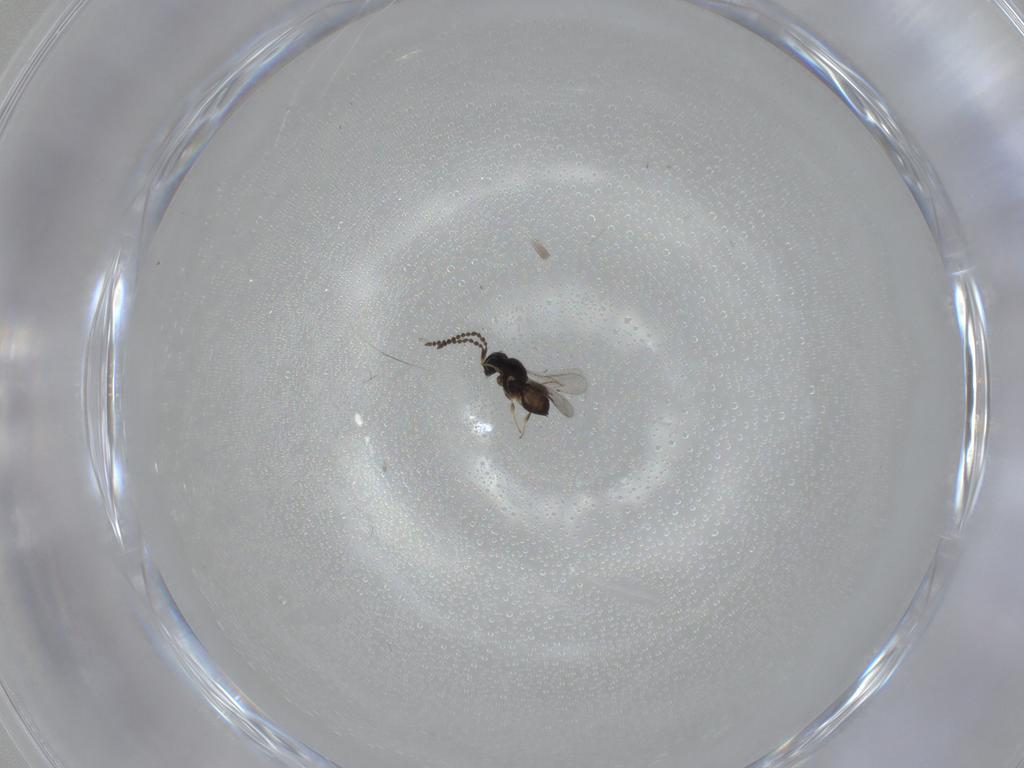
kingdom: Animalia
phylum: Arthropoda
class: Insecta
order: Hymenoptera
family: Scelionidae
